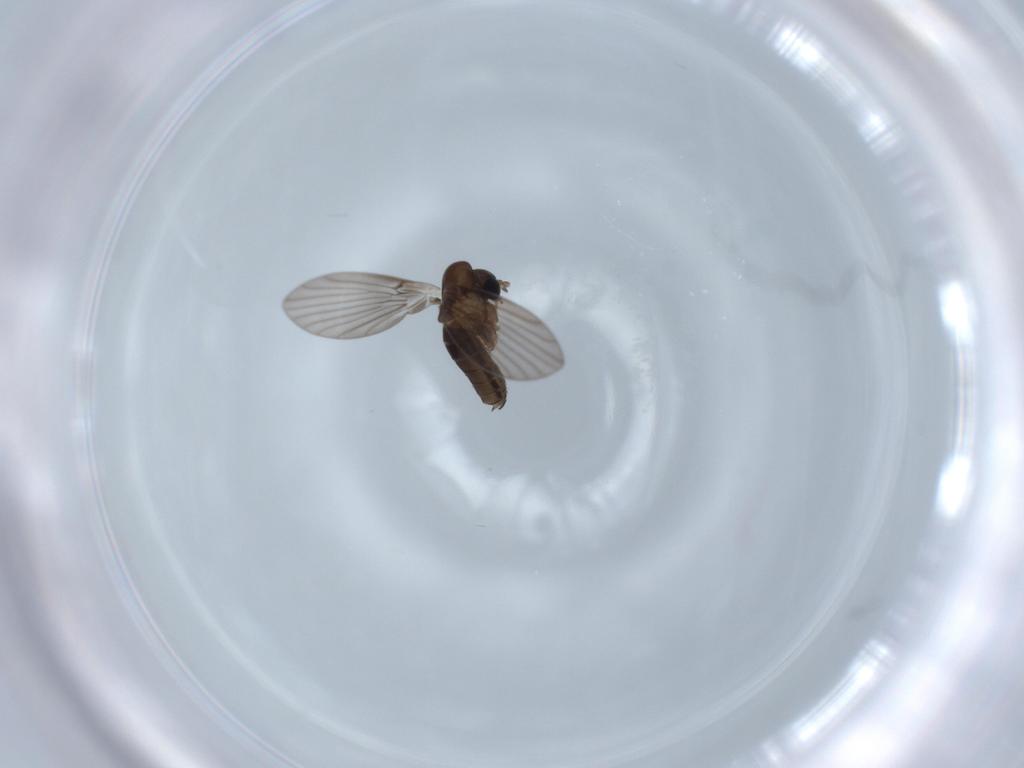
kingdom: Animalia
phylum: Arthropoda
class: Insecta
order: Diptera
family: Psychodidae
